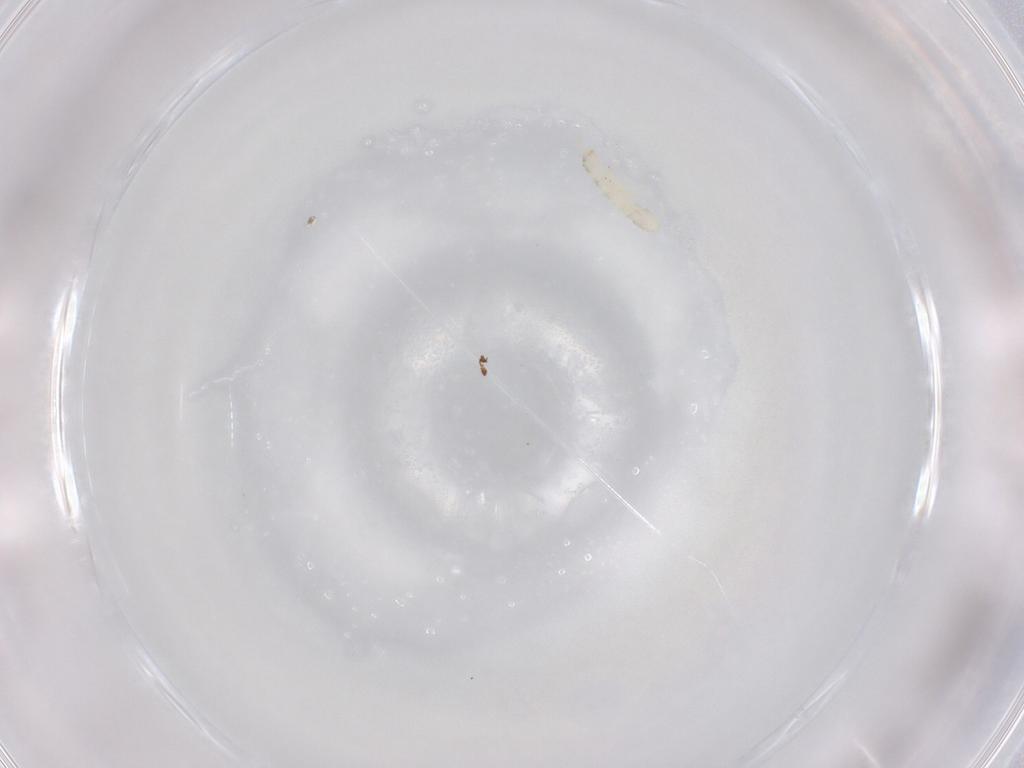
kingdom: Animalia
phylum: Arthropoda
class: Collembola
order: Entomobryomorpha
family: Isotomidae
